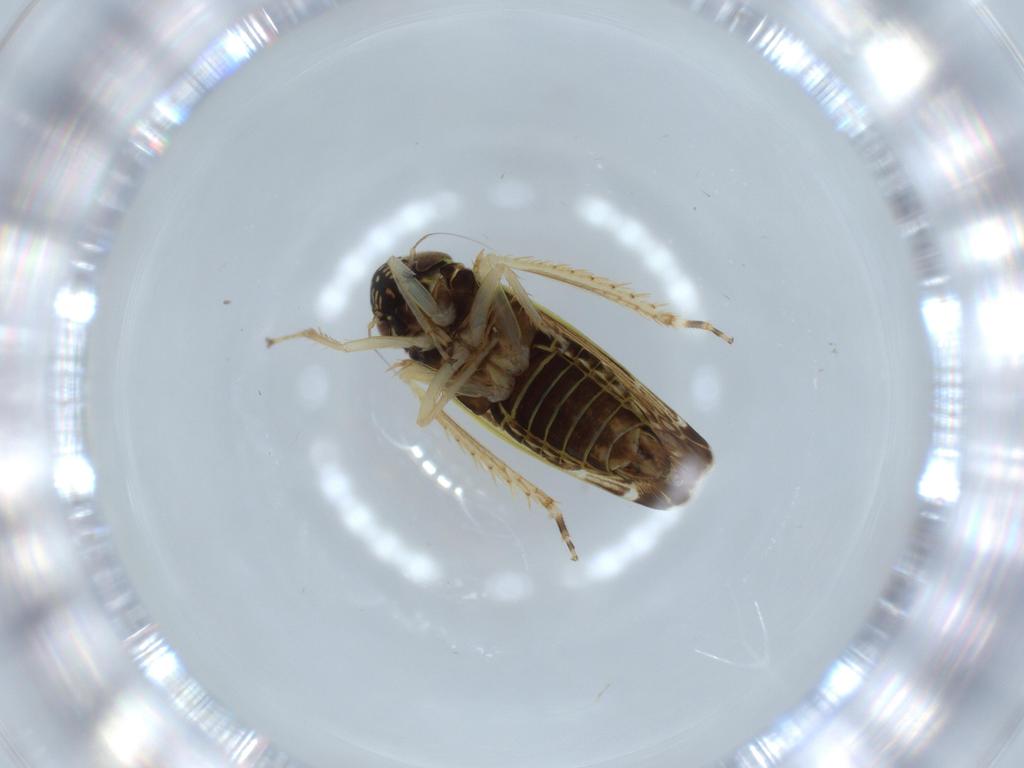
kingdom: Animalia
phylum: Arthropoda
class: Insecta
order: Hemiptera
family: Cicadellidae
